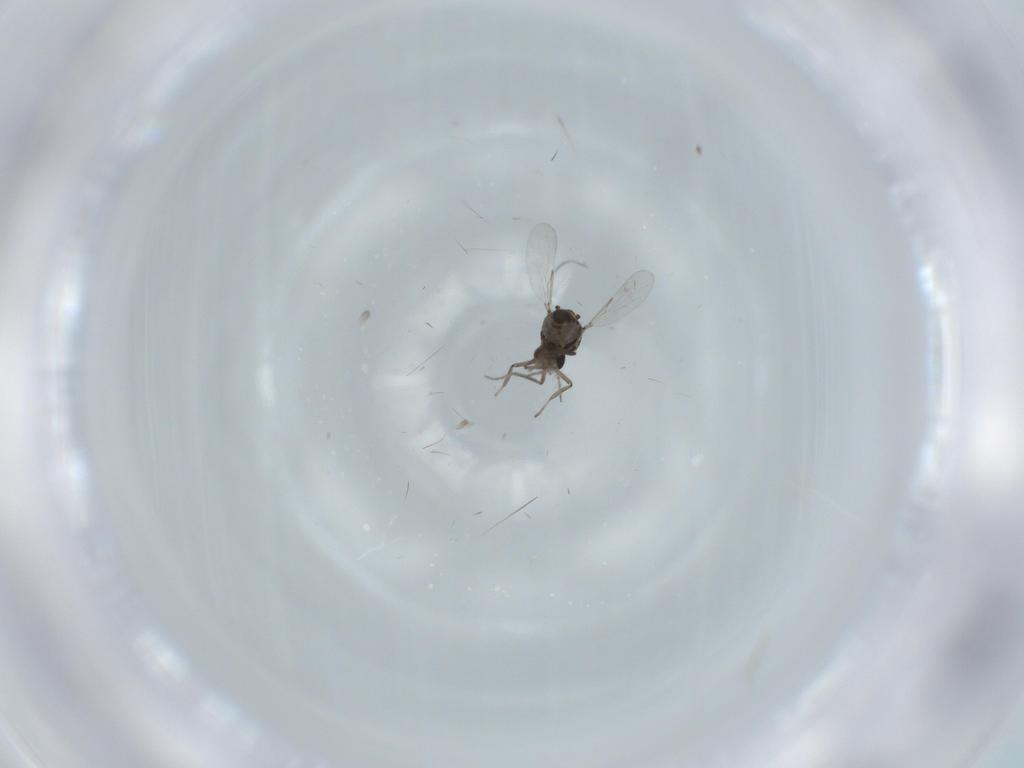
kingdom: Animalia
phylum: Arthropoda
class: Insecta
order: Diptera
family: Ceratopogonidae
